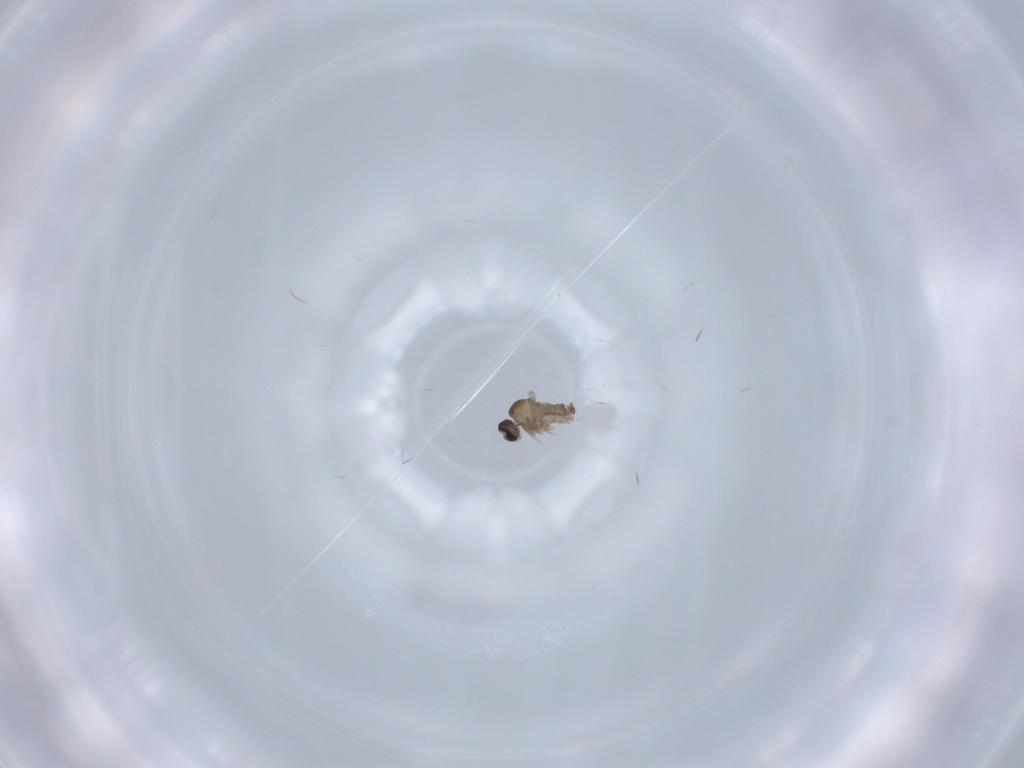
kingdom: Animalia
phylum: Arthropoda
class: Insecta
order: Diptera
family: Cecidomyiidae
